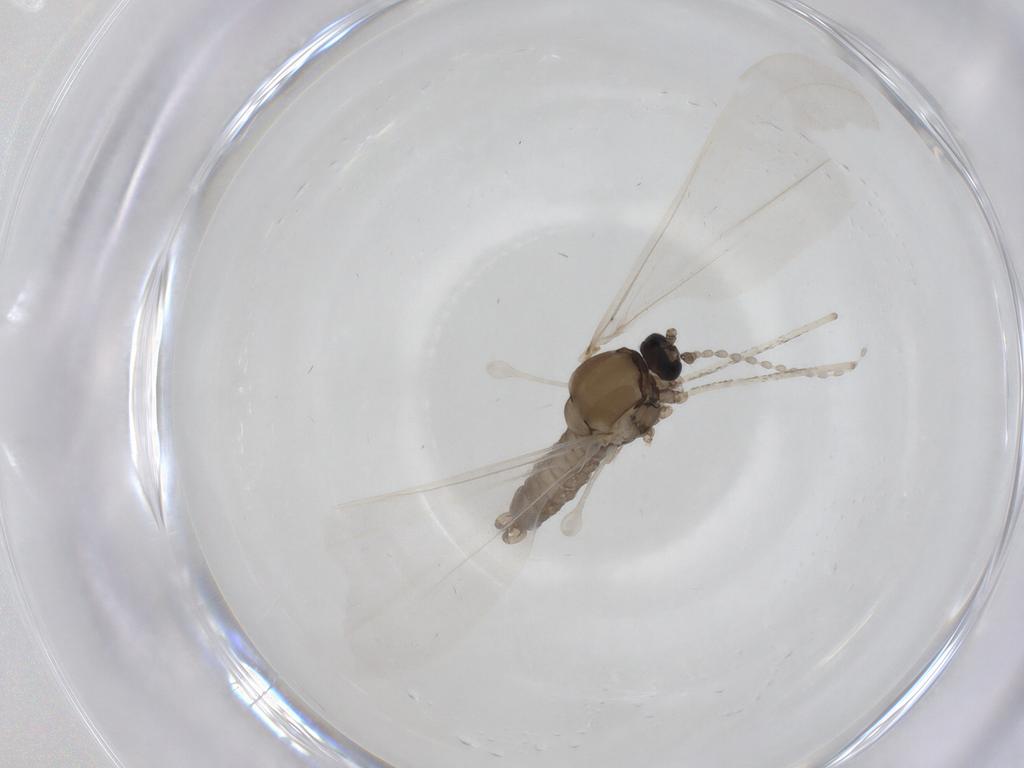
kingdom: Animalia
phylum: Arthropoda
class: Insecta
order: Diptera
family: Cecidomyiidae
